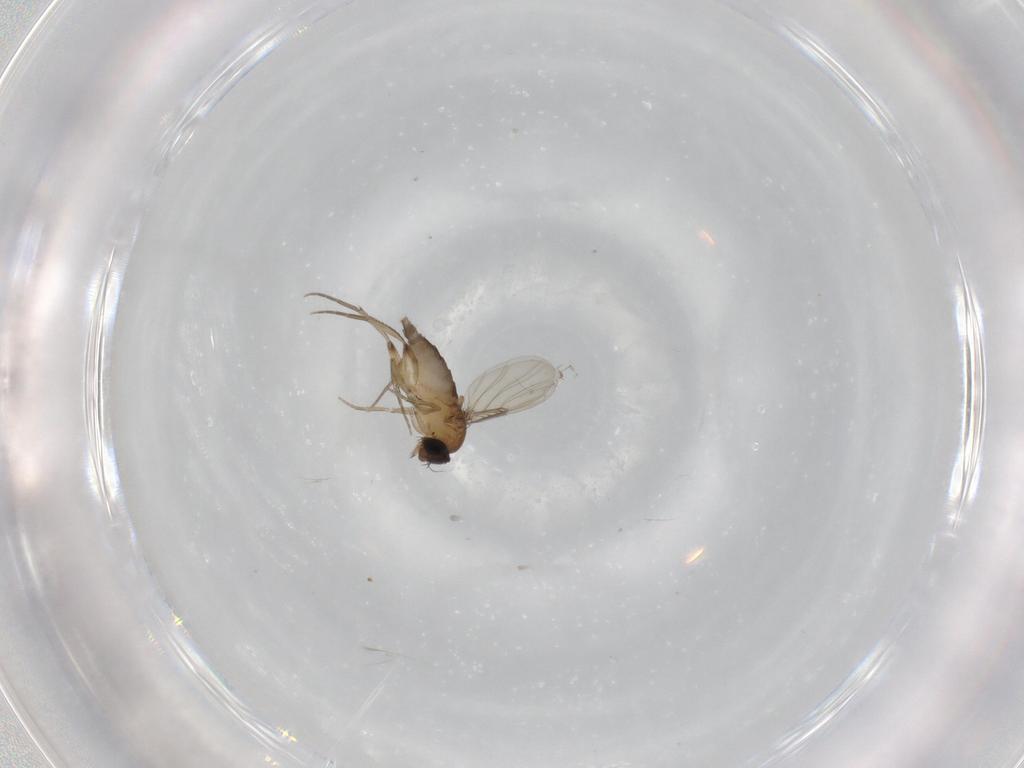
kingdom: Animalia
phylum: Arthropoda
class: Insecta
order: Diptera
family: Phoridae
